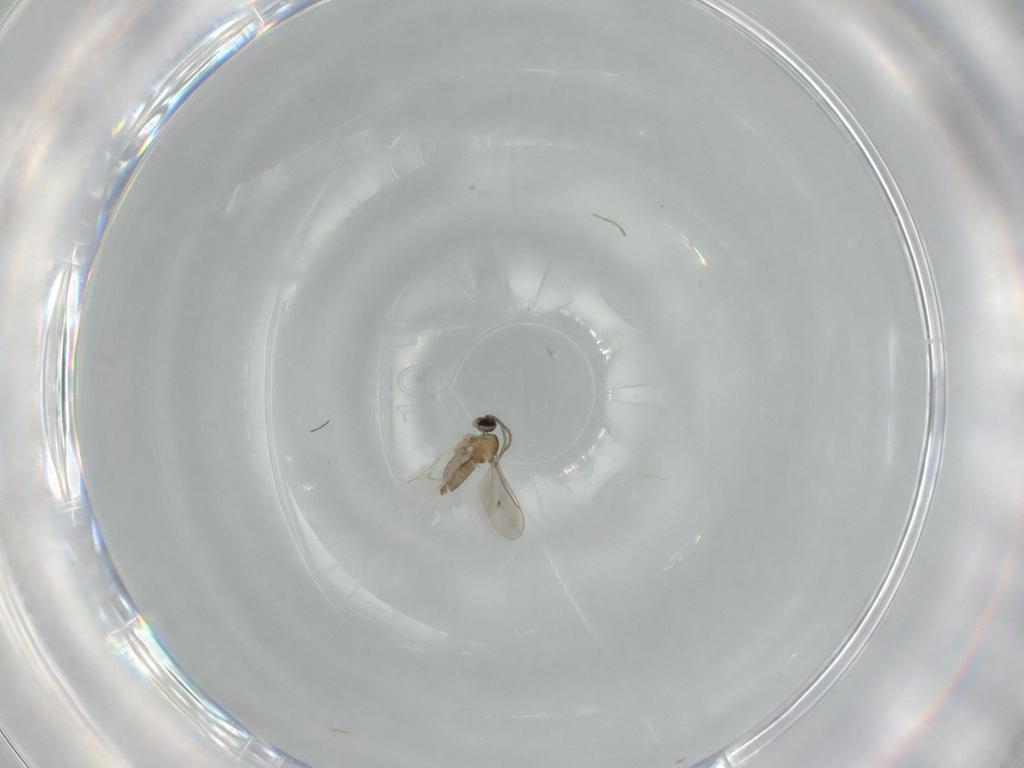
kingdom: Animalia
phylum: Arthropoda
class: Insecta
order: Diptera
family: Cecidomyiidae
